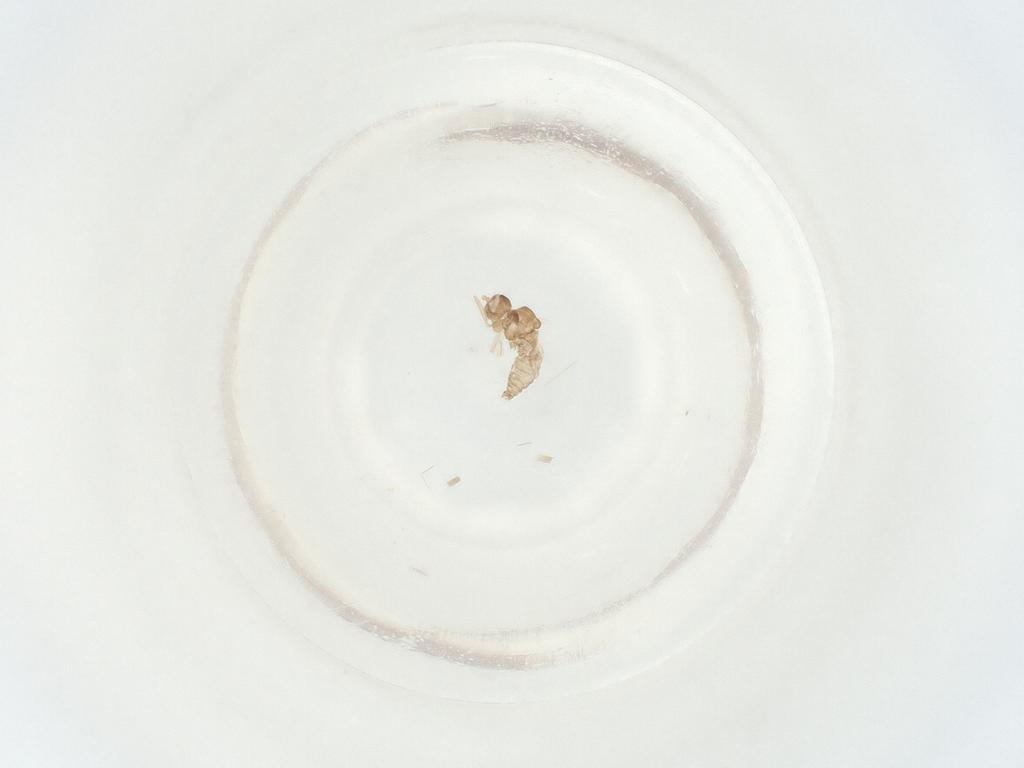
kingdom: Animalia
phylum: Arthropoda
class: Insecta
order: Diptera
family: Cecidomyiidae
